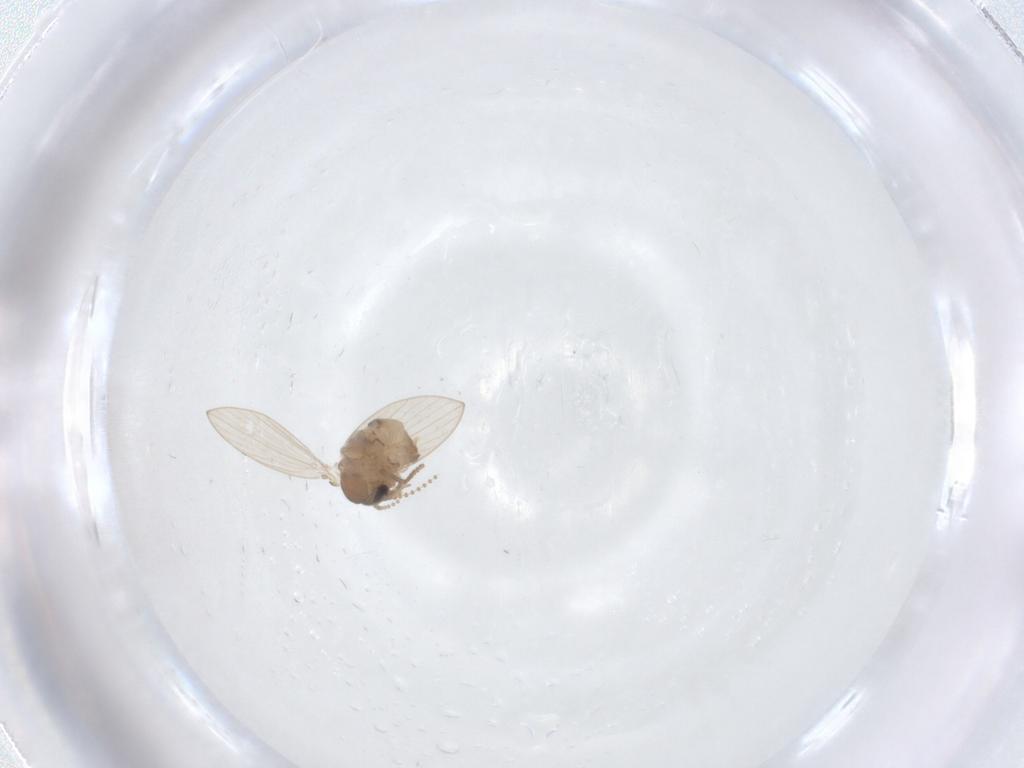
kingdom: Animalia
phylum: Arthropoda
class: Insecta
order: Diptera
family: Psychodidae
